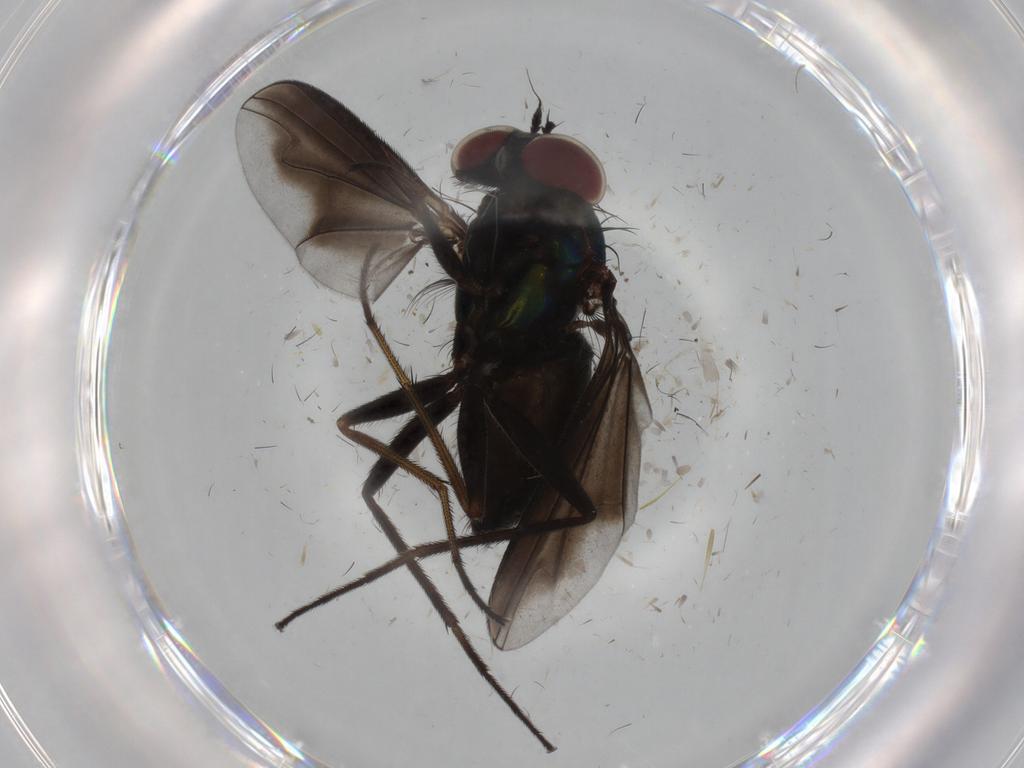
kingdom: Animalia
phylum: Arthropoda
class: Insecta
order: Diptera
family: Dolichopodidae
